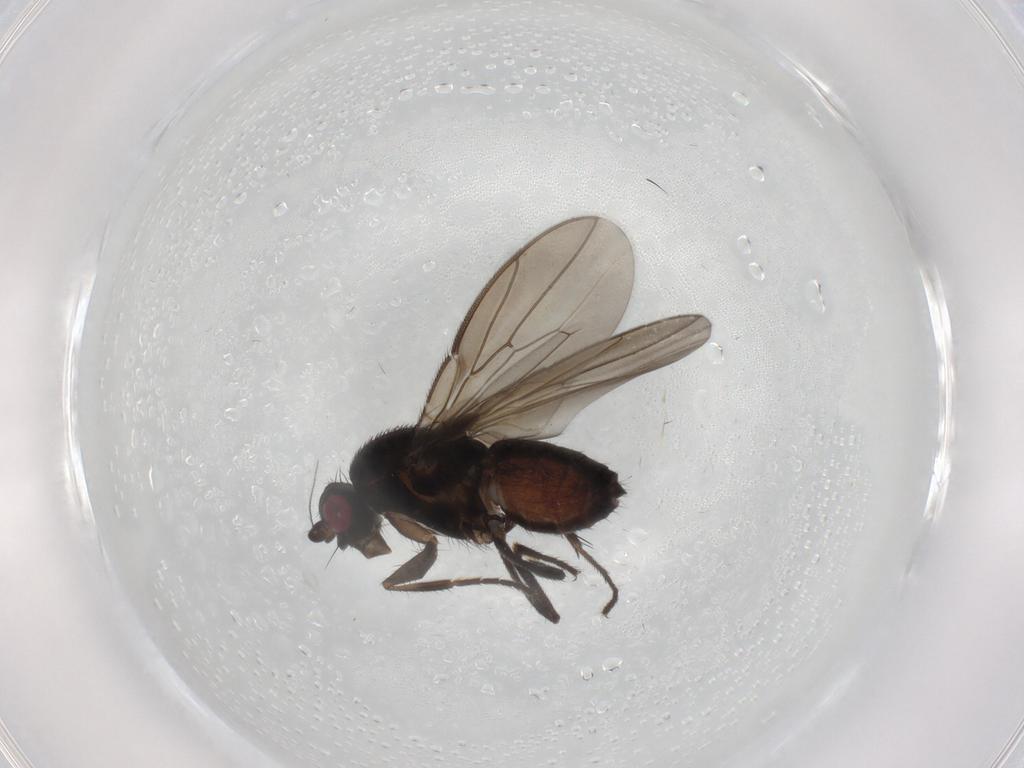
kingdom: Animalia
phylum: Arthropoda
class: Insecta
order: Diptera
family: Sphaeroceridae
